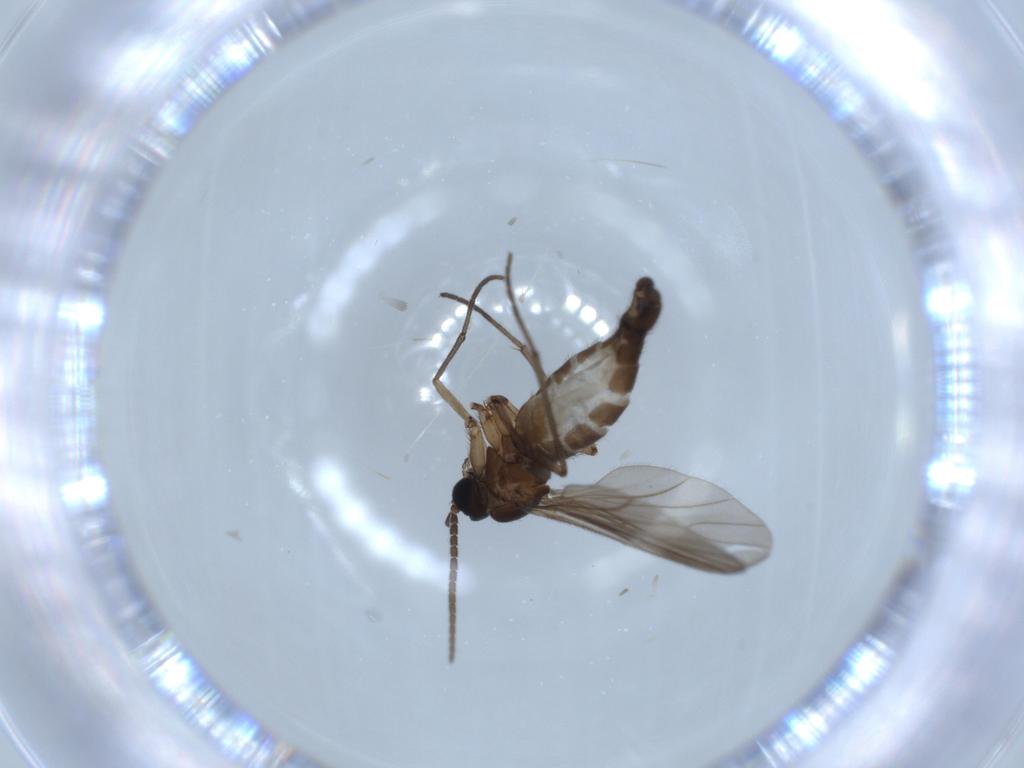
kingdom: Animalia
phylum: Arthropoda
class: Insecta
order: Diptera
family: Sciaridae
